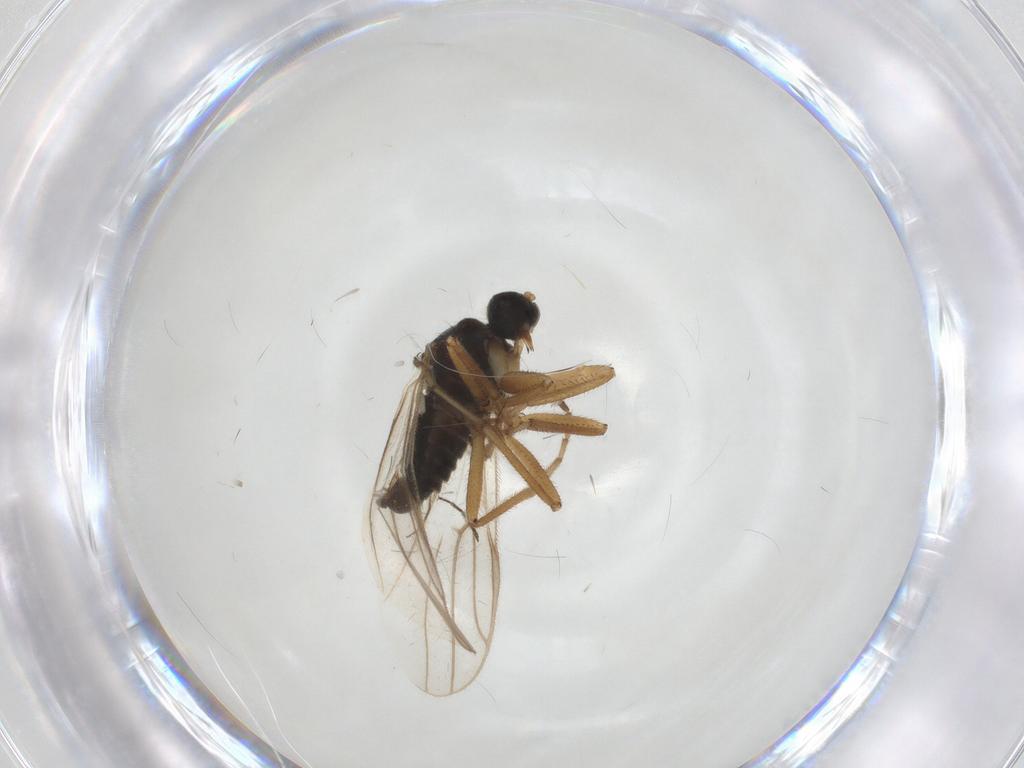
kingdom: Animalia
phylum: Arthropoda
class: Insecta
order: Diptera
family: Hybotidae
